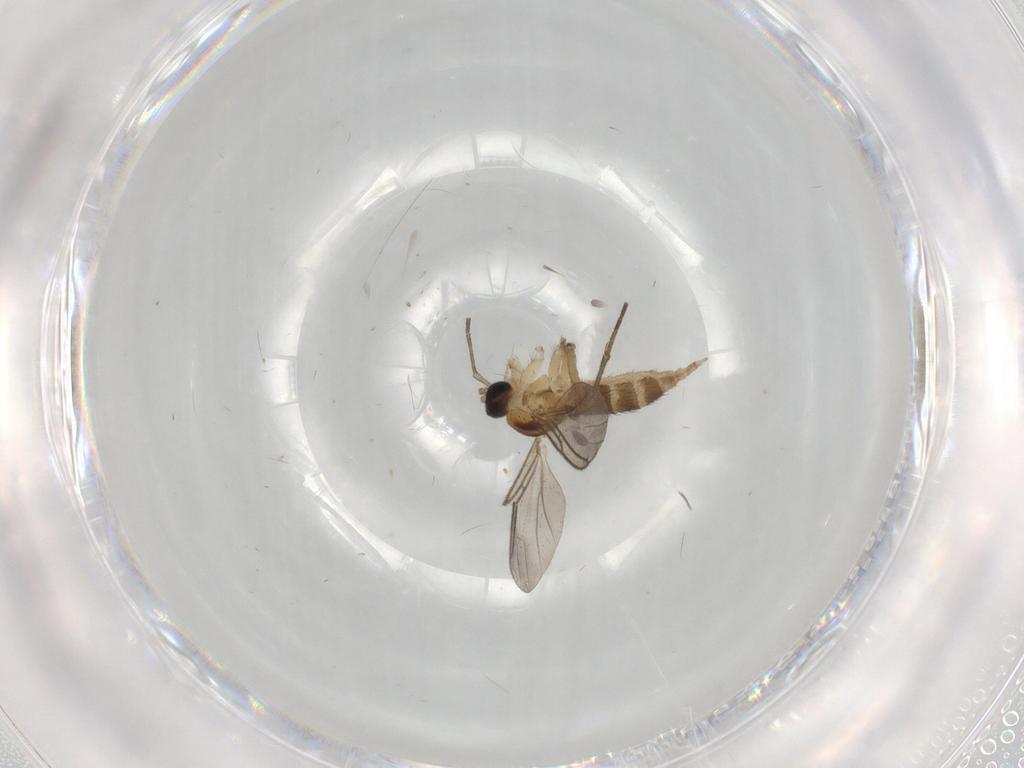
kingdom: Animalia
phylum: Arthropoda
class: Insecta
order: Diptera
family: Sciaridae
